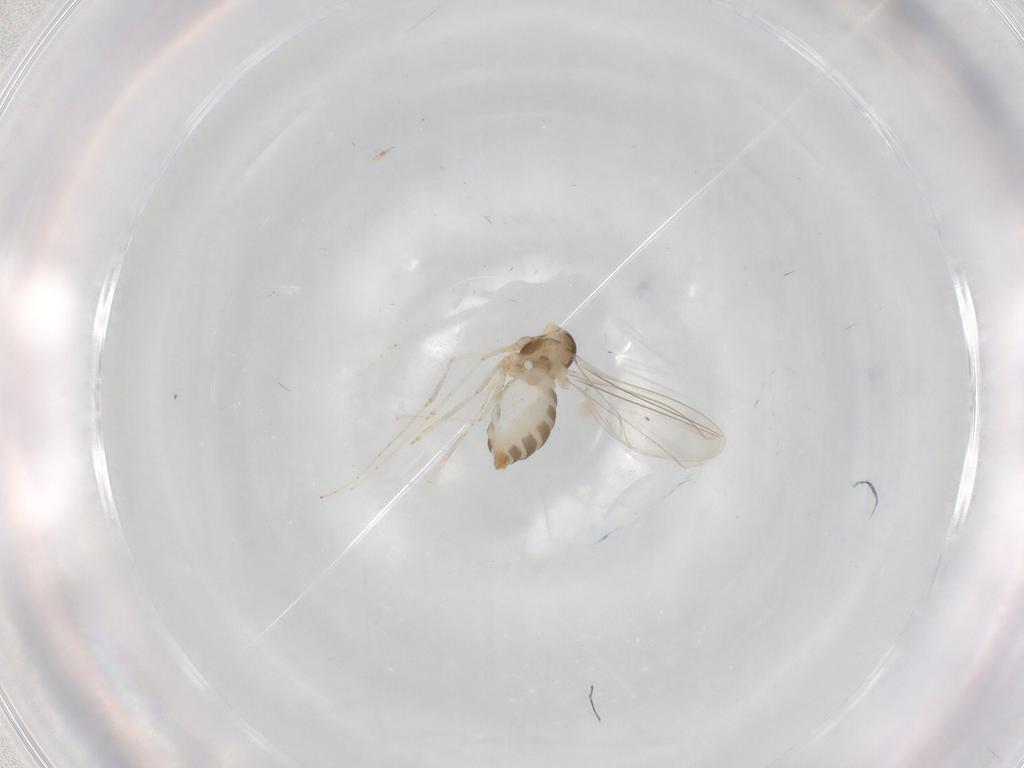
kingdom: Animalia
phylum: Arthropoda
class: Insecta
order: Diptera
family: Cecidomyiidae
